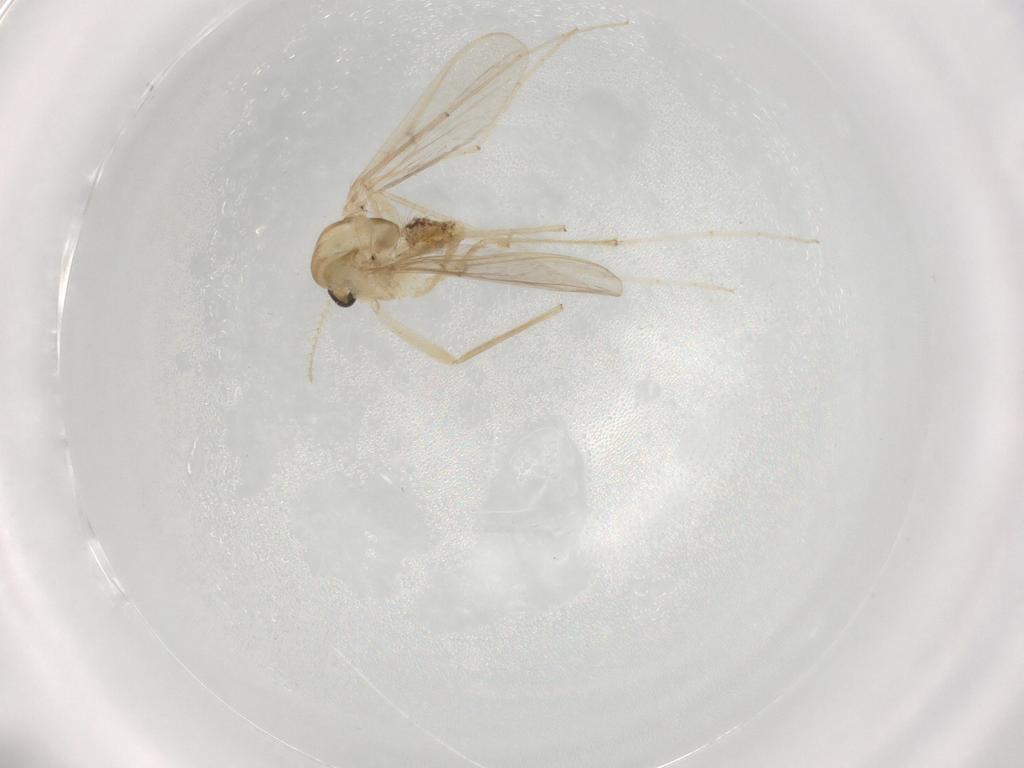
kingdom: Animalia
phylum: Arthropoda
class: Insecta
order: Diptera
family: Chironomidae
